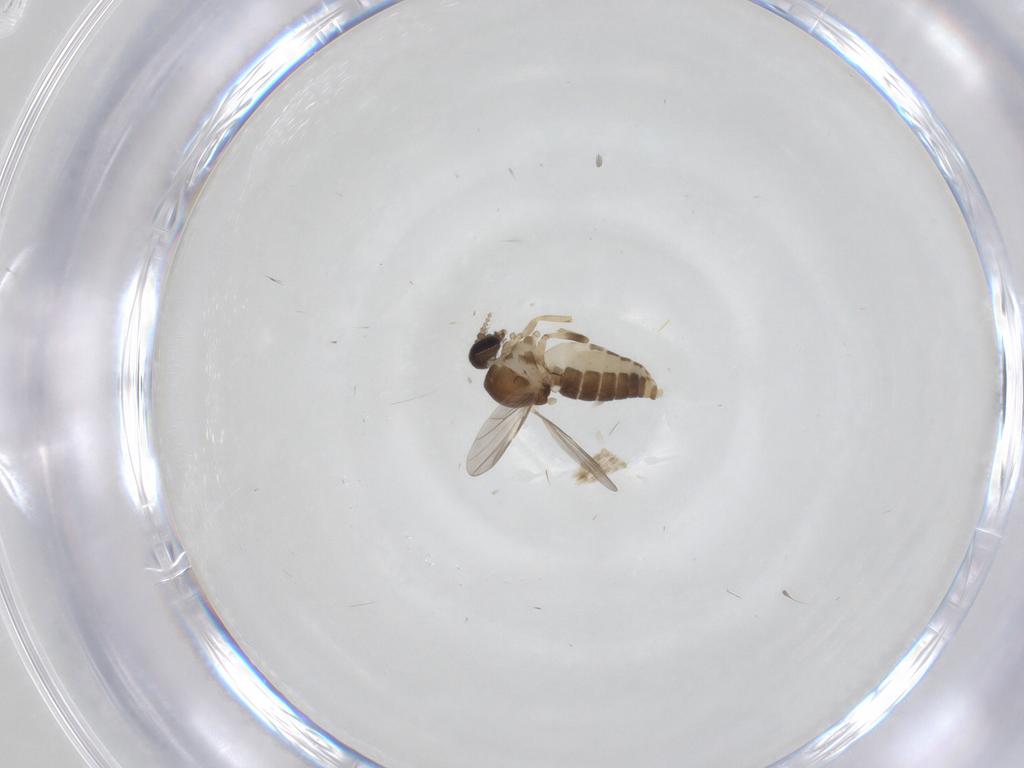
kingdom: Animalia
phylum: Arthropoda
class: Insecta
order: Diptera
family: Ceratopogonidae
